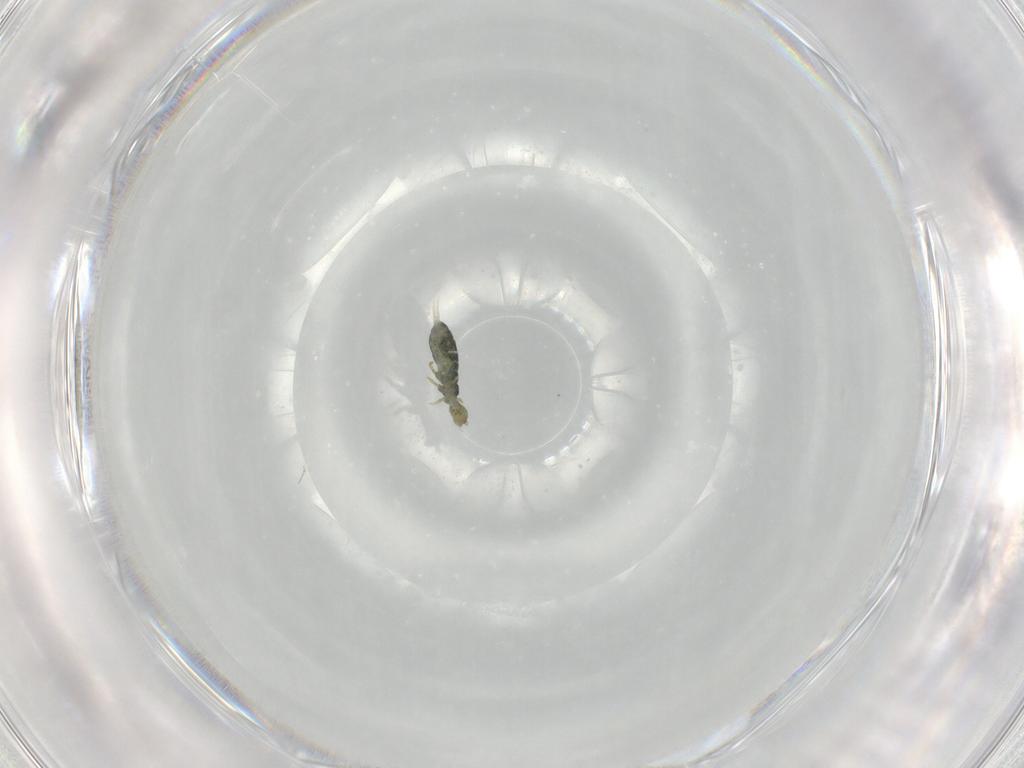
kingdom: Animalia
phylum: Arthropoda
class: Collembola
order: Entomobryomorpha
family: Isotomidae
